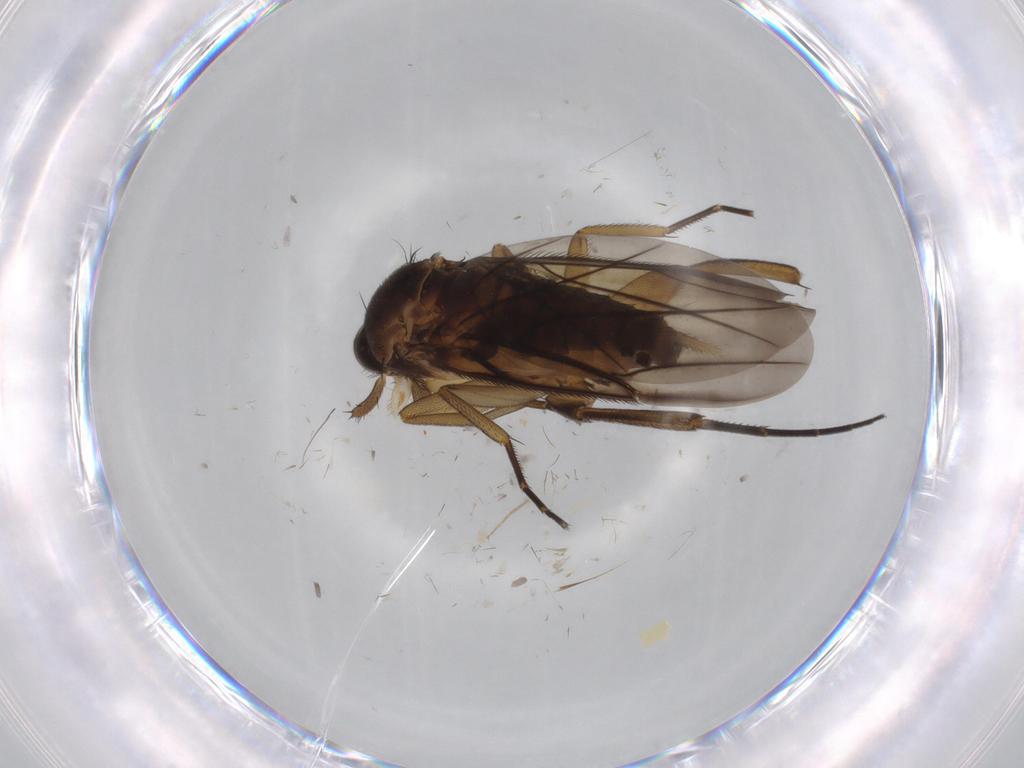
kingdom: Animalia
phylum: Arthropoda
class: Insecta
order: Diptera
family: Phoridae
